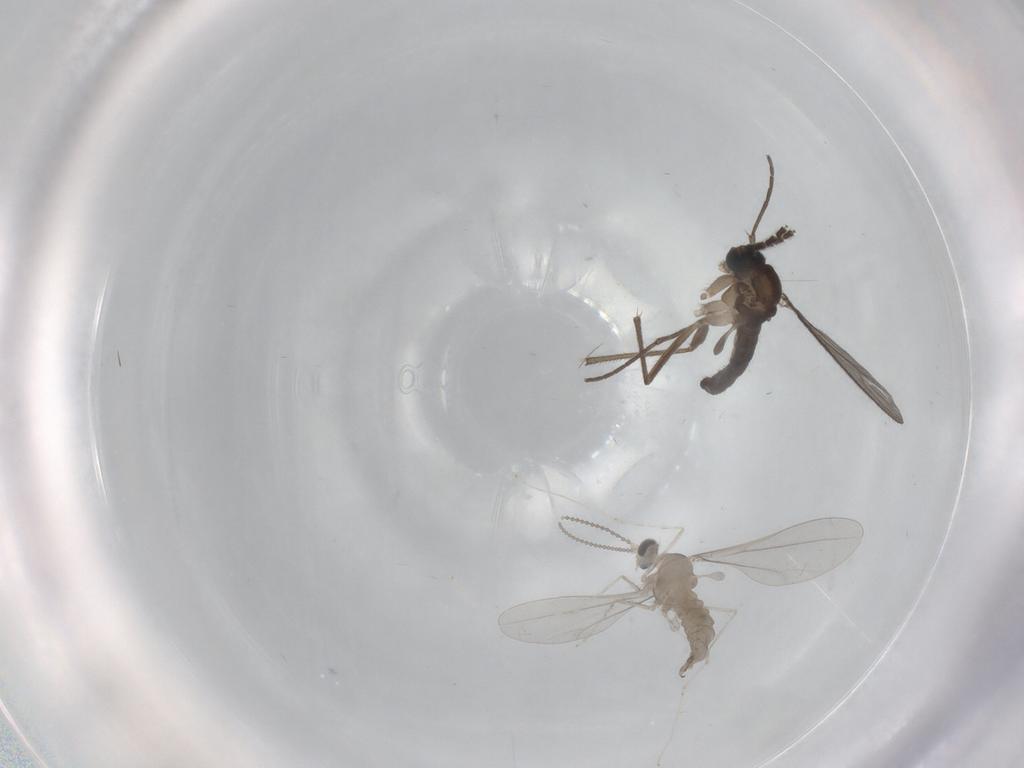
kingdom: Animalia
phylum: Arthropoda
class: Insecta
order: Diptera
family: Cecidomyiidae
